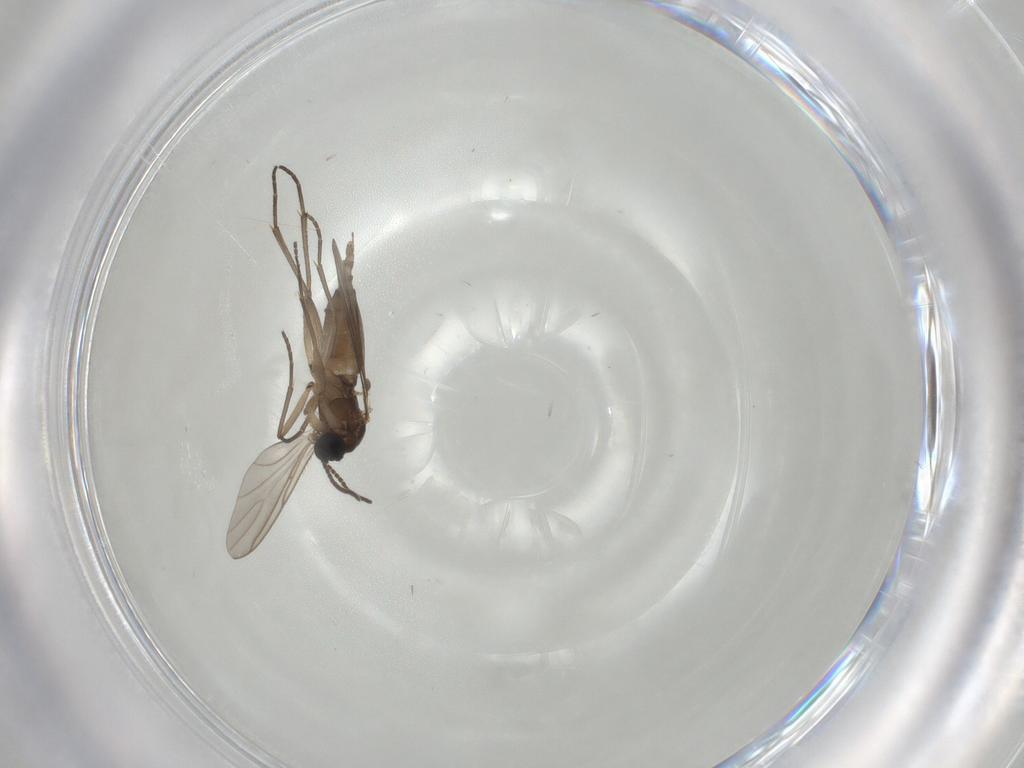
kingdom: Animalia
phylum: Arthropoda
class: Insecta
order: Diptera
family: Sciaridae
